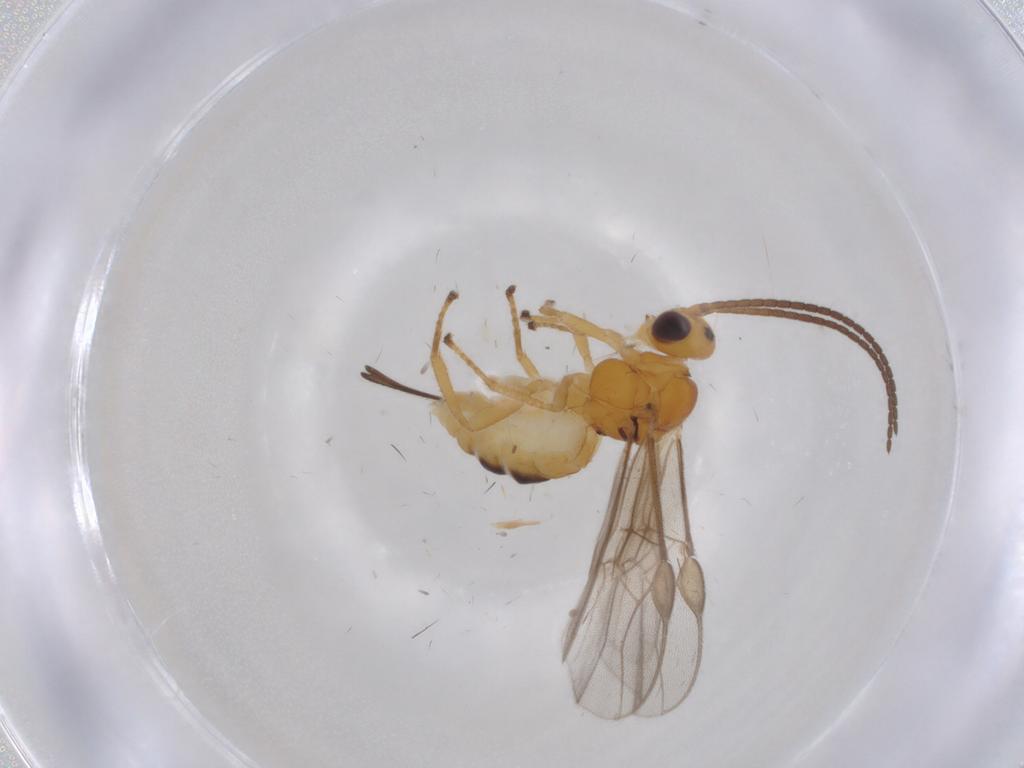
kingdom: Animalia
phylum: Arthropoda
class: Insecta
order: Hymenoptera
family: Braconidae
